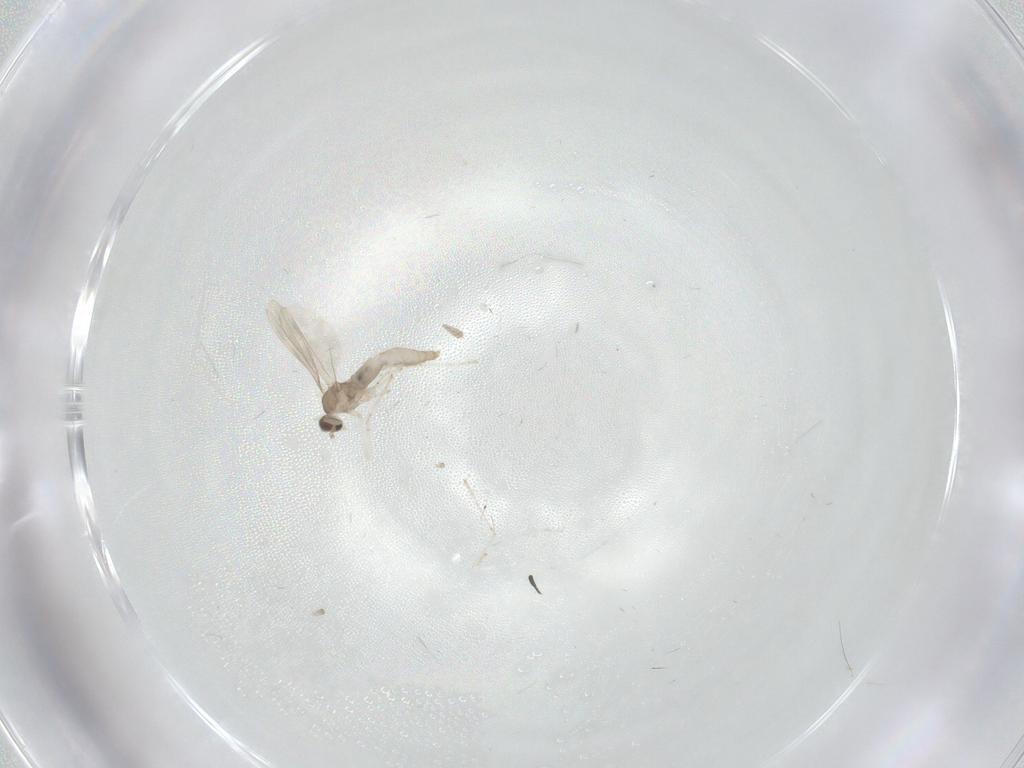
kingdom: Animalia
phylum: Arthropoda
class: Insecta
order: Diptera
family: Cecidomyiidae
